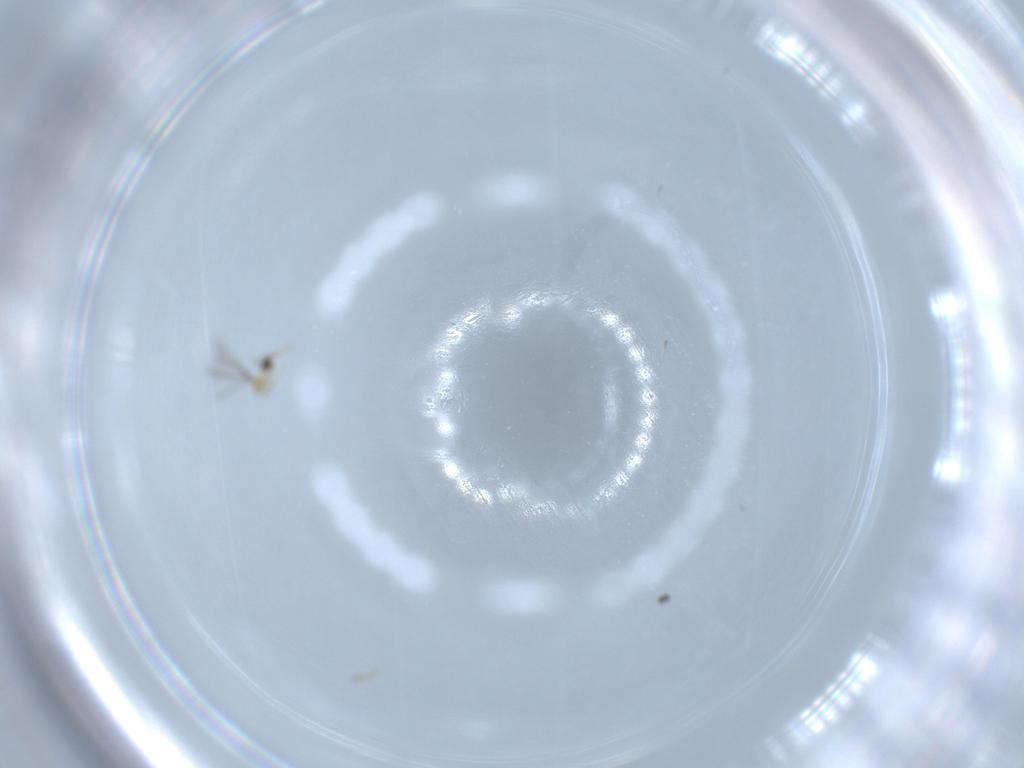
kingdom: Animalia
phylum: Arthropoda
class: Insecta
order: Hymenoptera
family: Mymaridae
